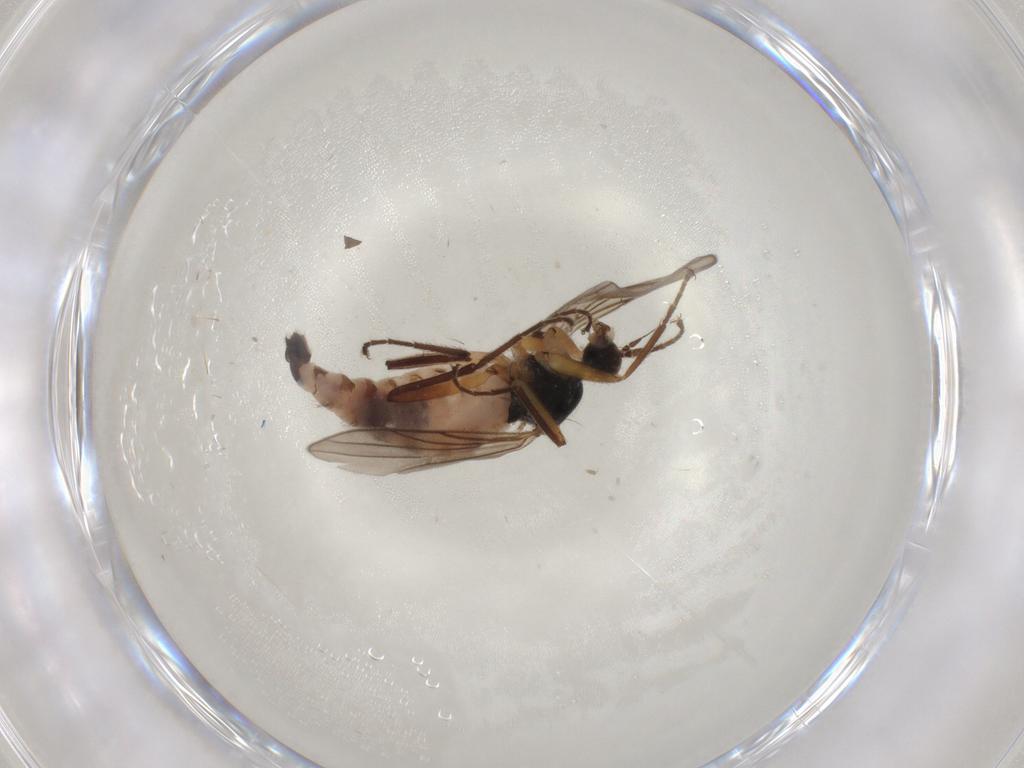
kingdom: Animalia
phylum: Arthropoda
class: Insecta
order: Diptera
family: Hybotidae
